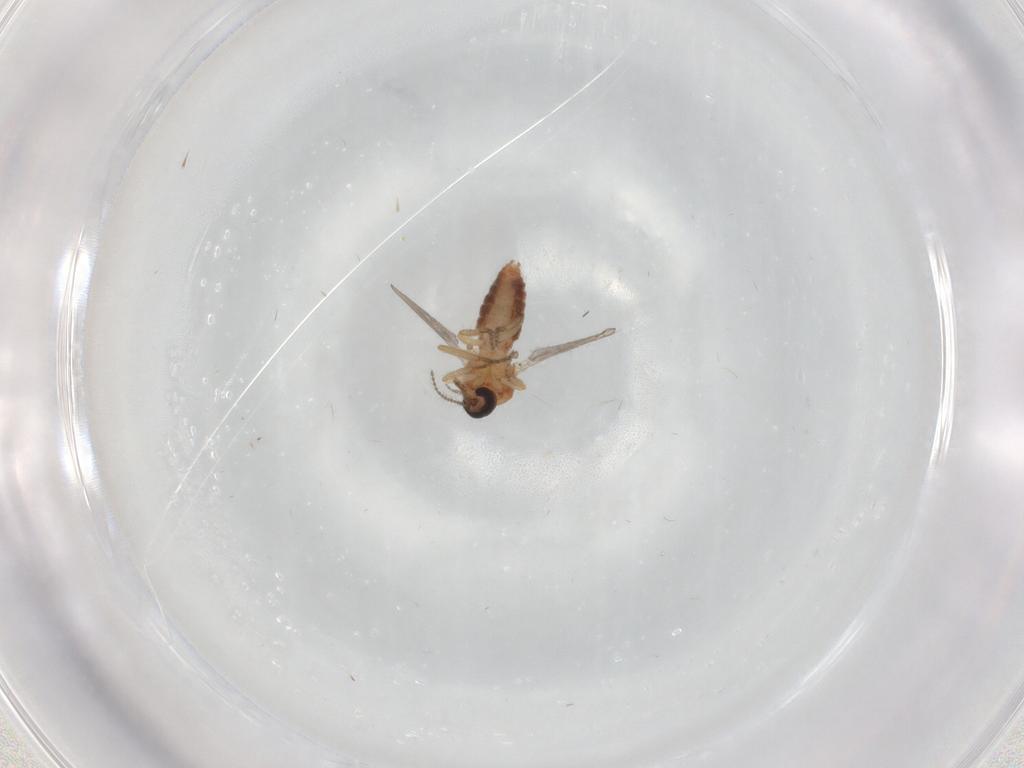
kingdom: Animalia
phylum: Arthropoda
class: Insecta
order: Diptera
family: Ceratopogonidae
